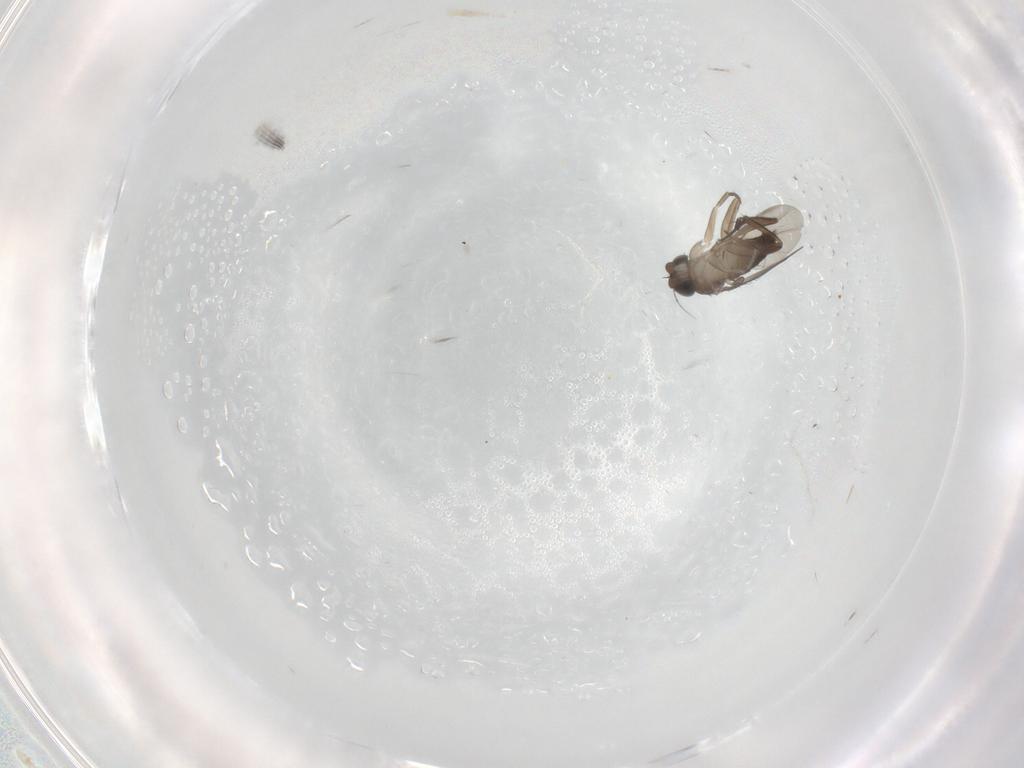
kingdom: Animalia
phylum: Arthropoda
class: Insecta
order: Diptera
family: Phoridae
